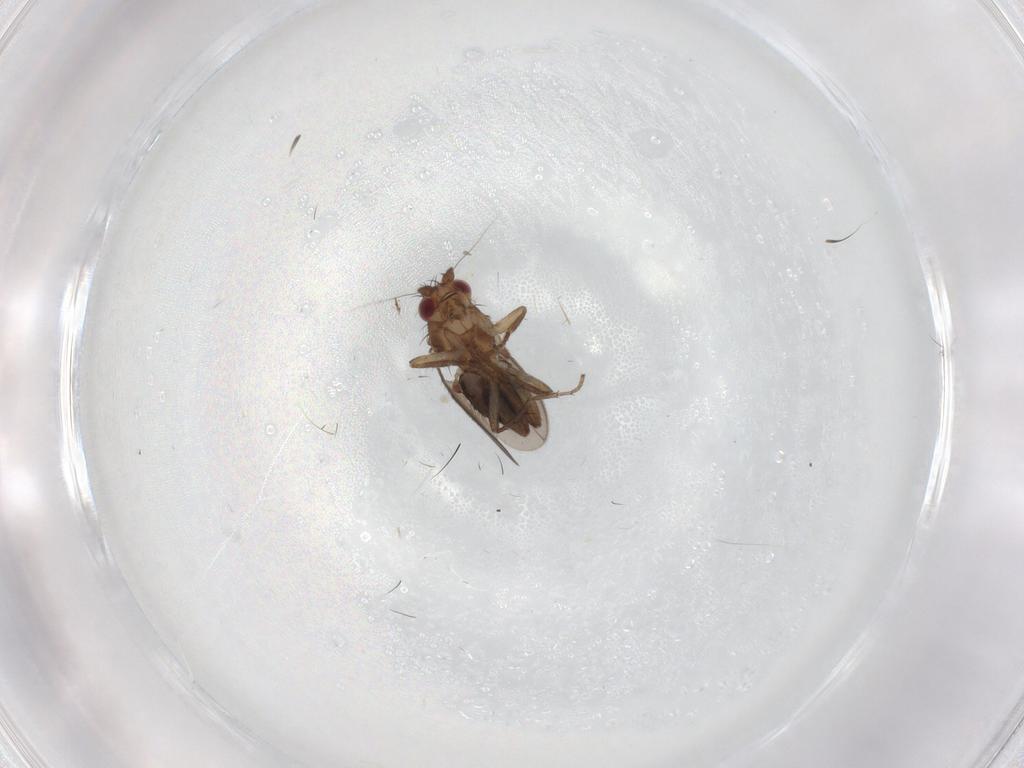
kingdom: Animalia
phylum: Arthropoda
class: Insecta
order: Diptera
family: Sphaeroceridae
